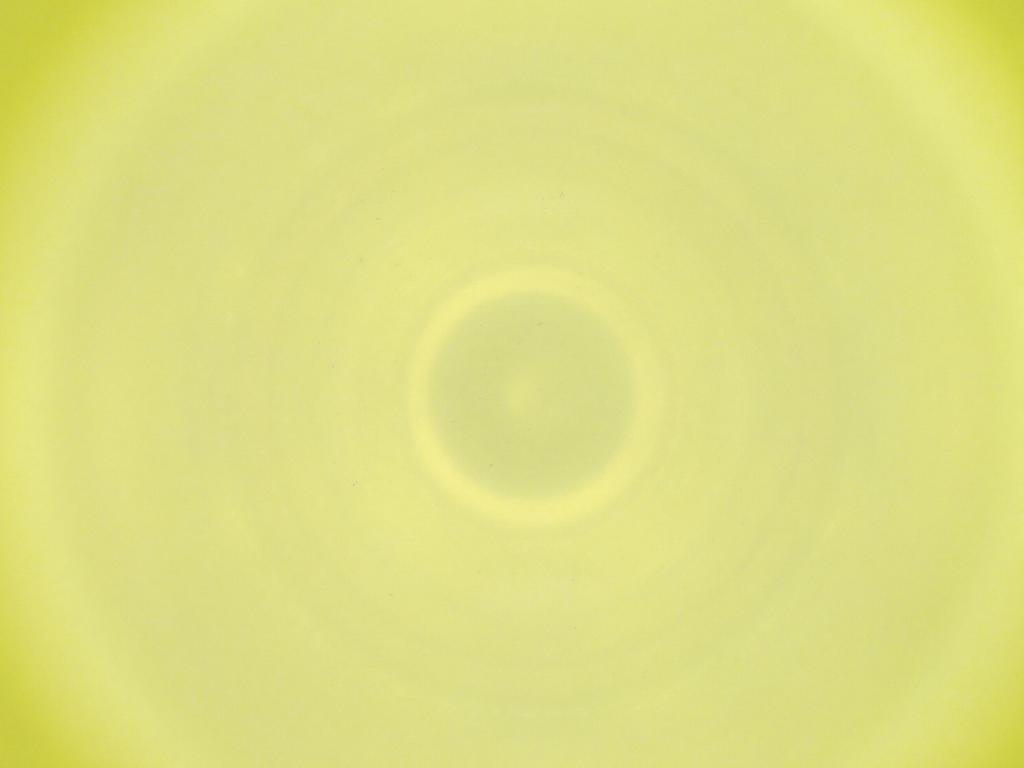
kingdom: Animalia
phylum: Arthropoda
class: Insecta
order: Diptera
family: Cecidomyiidae
